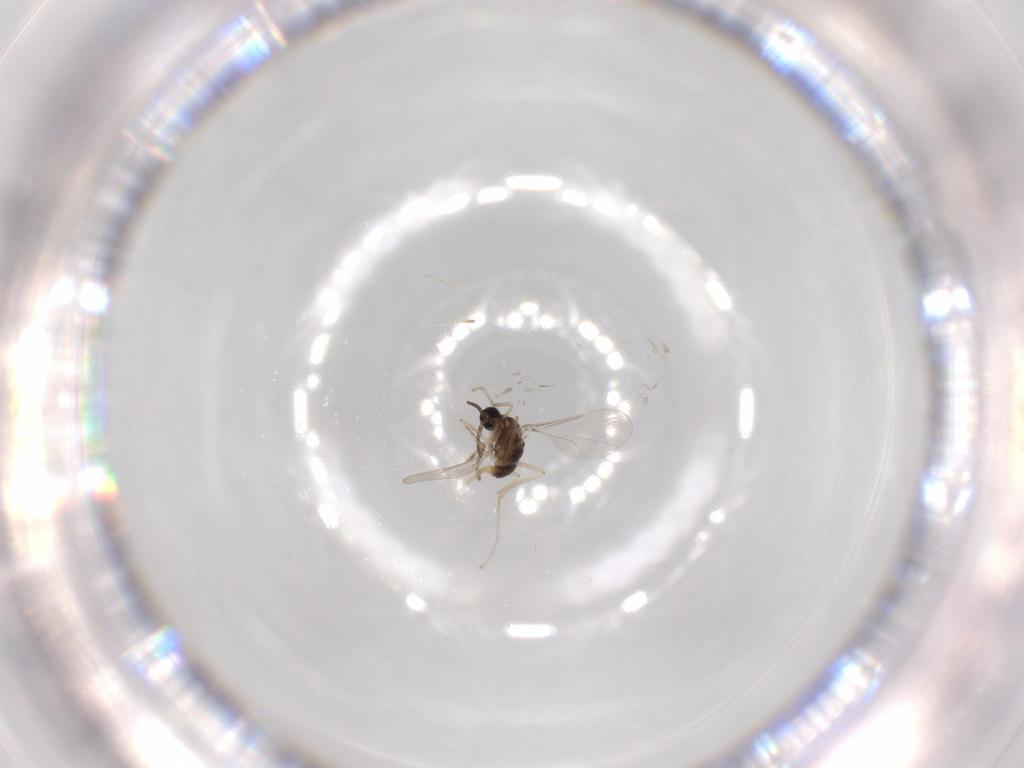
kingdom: Animalia
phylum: Arthropoda
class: Insecta
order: Diptera
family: Cecidomyiidae
